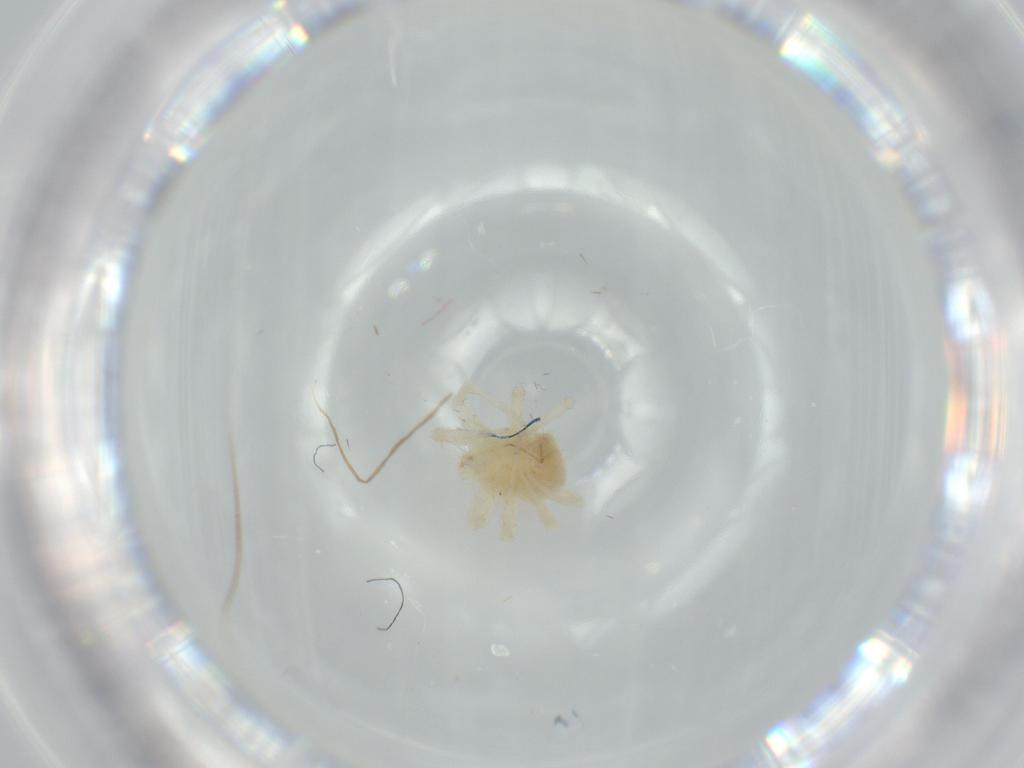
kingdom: Animalia
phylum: Arthropoda
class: Arachnida
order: Trombidiformes
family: Anystidae
